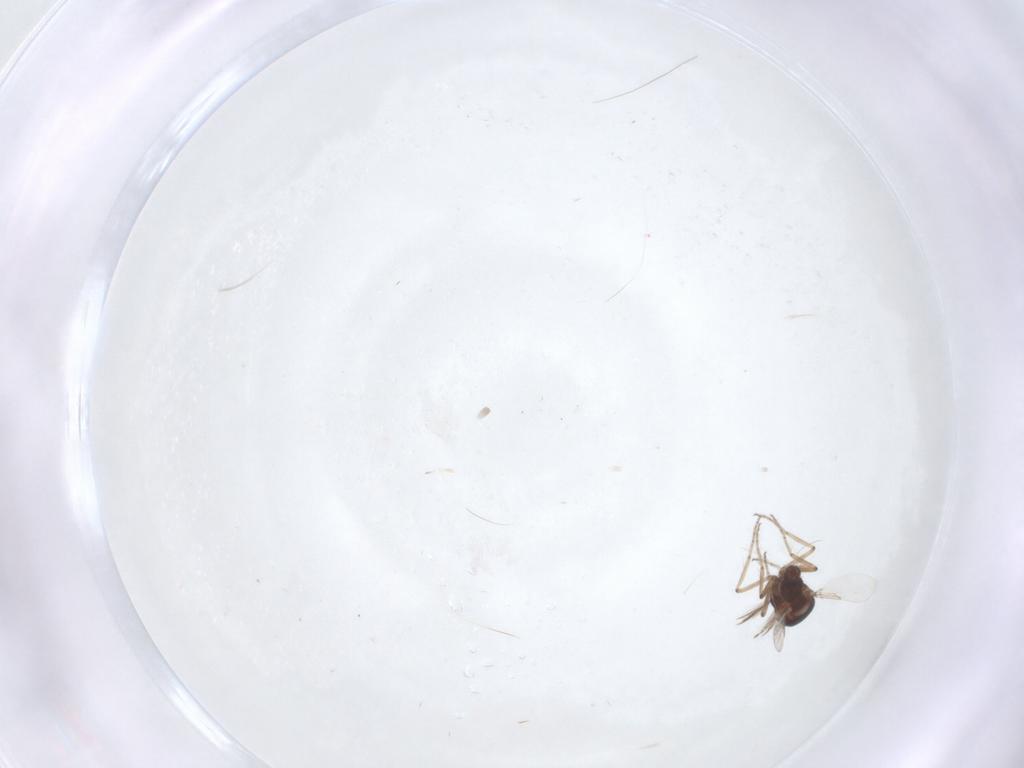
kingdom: Animalia
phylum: Arthropoda
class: Insecta
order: Diptera
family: Ceratopogonidae
